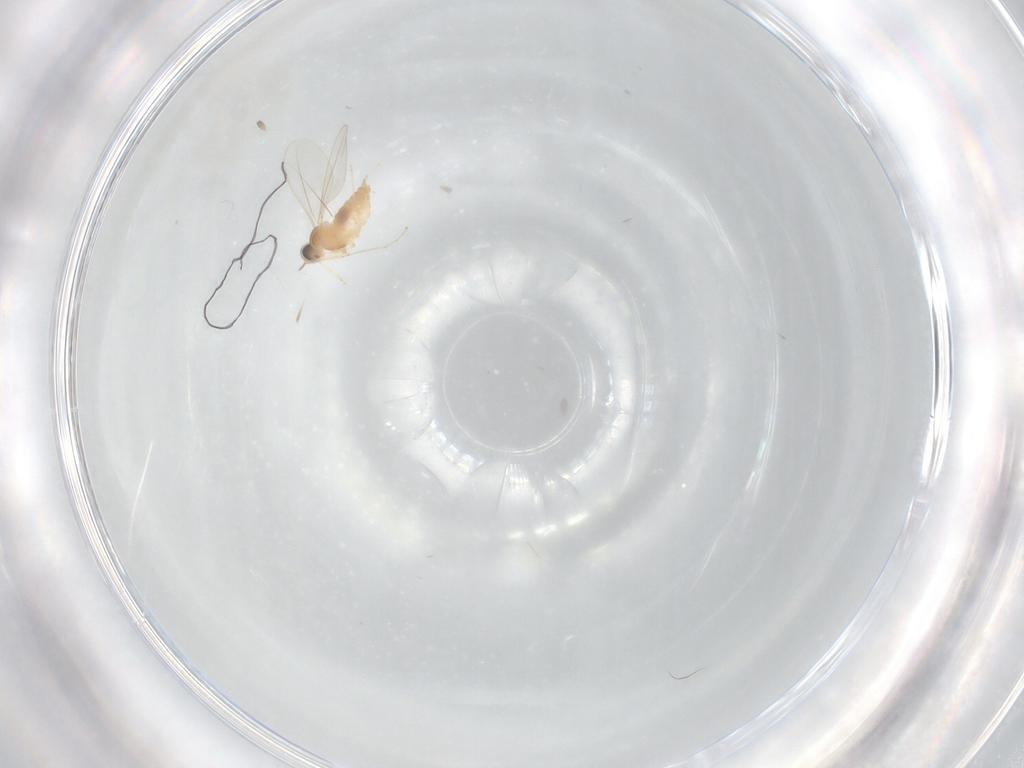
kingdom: Animalia
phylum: Arthropoda
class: Insecta
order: Diptera
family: Cecidomyiidae
